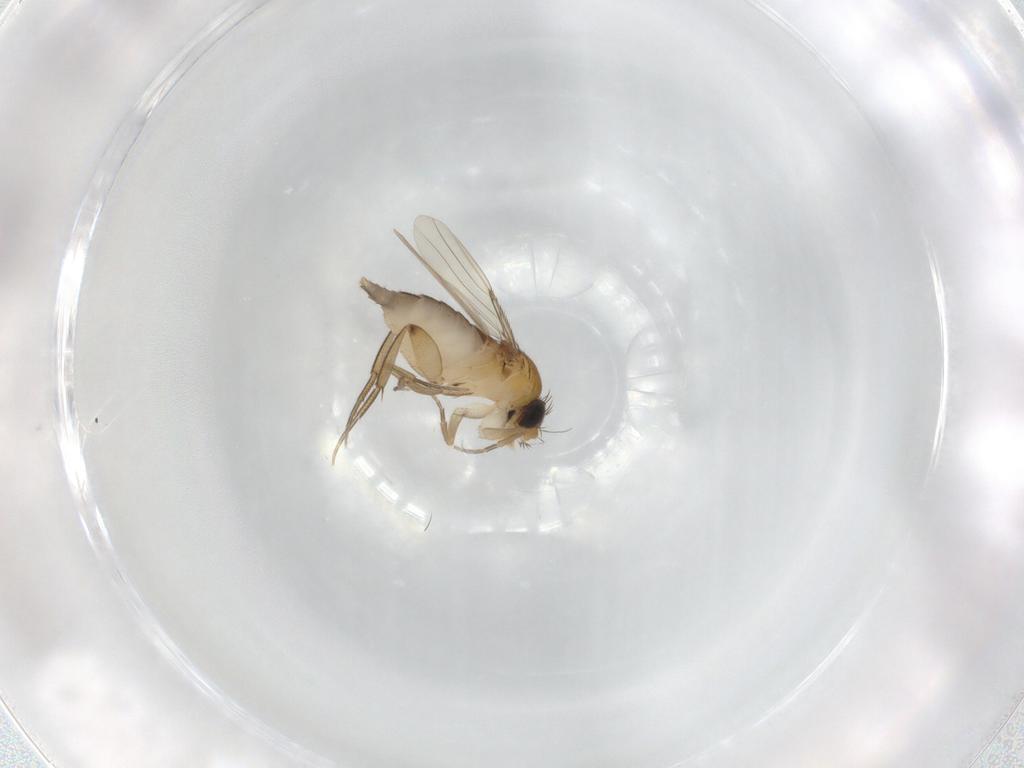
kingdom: Animalia
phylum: Arthropoda
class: Insecta
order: Diptera
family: Phoridae
